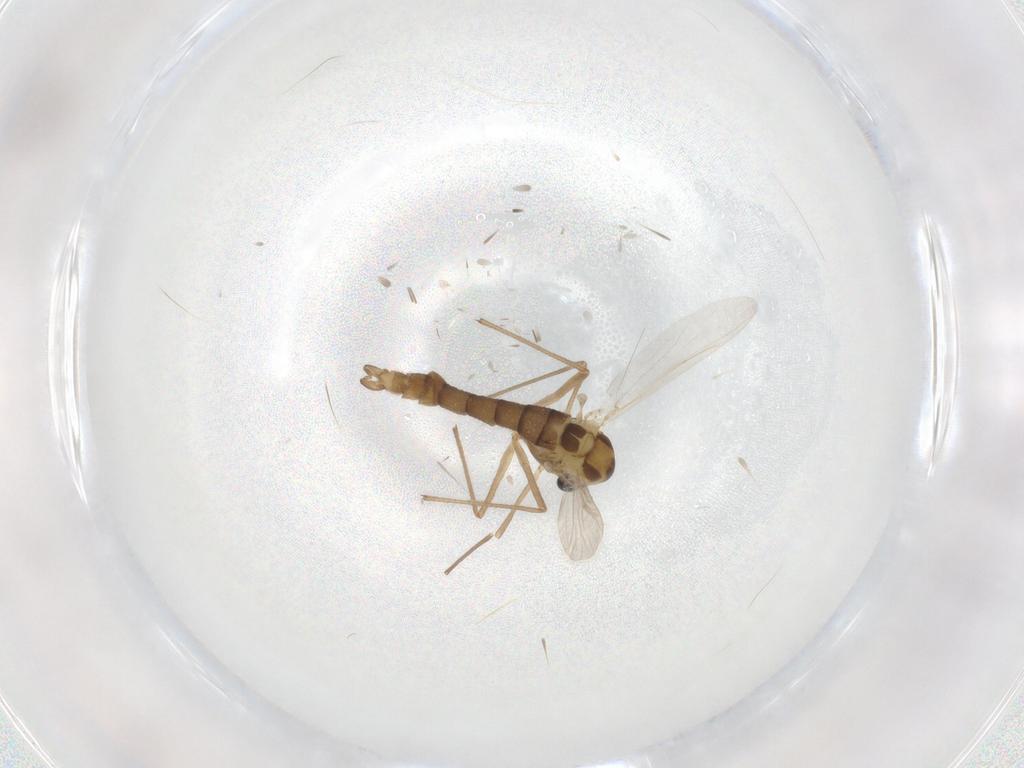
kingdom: Animalia
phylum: Arthropoda
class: Insecta
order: Diptera
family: Chironomidae
